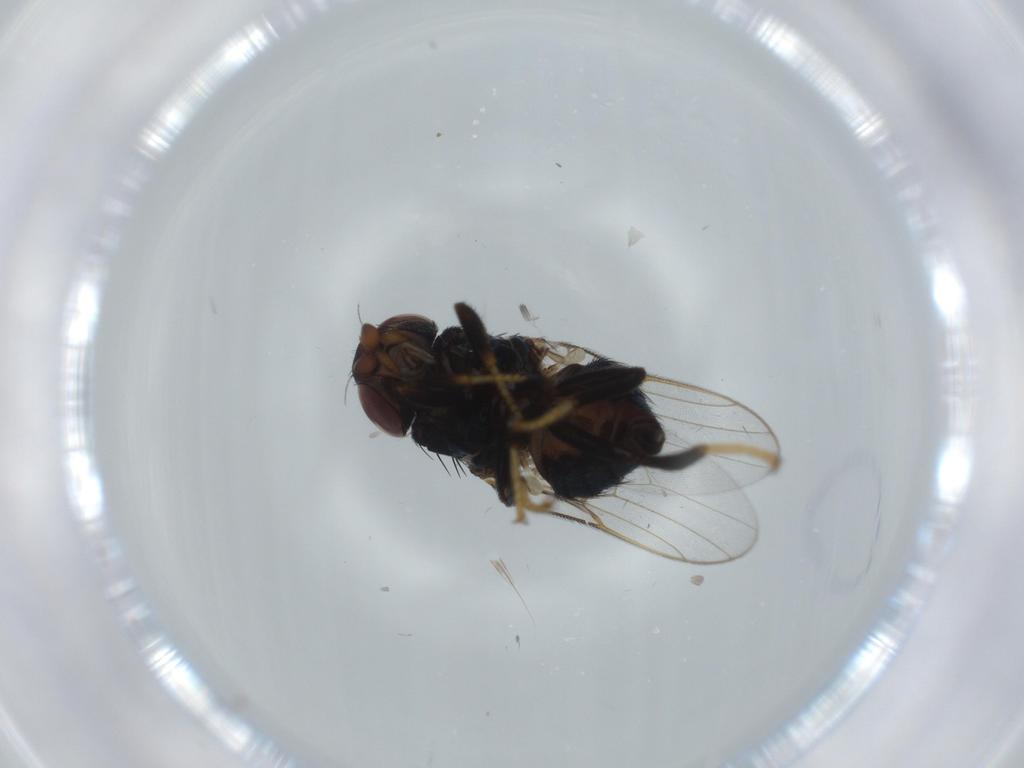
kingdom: Animalia
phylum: Arthropoda
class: Insecta
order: Diptera
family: Chloropidae
